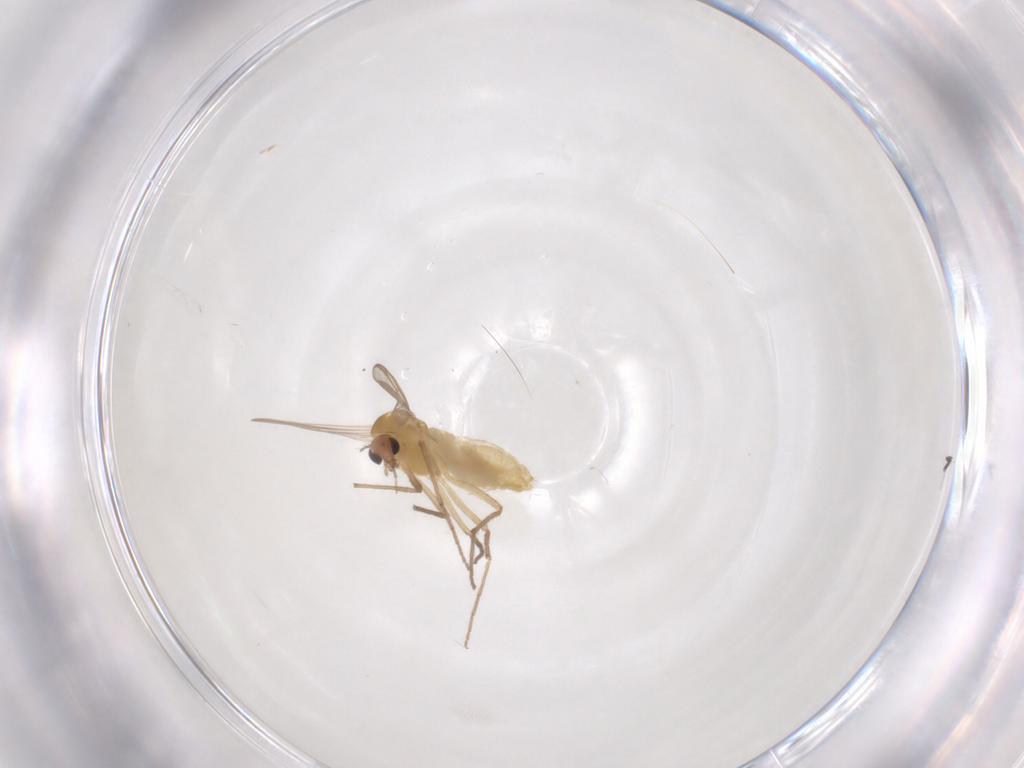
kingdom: Animalia
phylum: Arthropoda
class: Insecta
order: Diptera
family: Chironomidae
